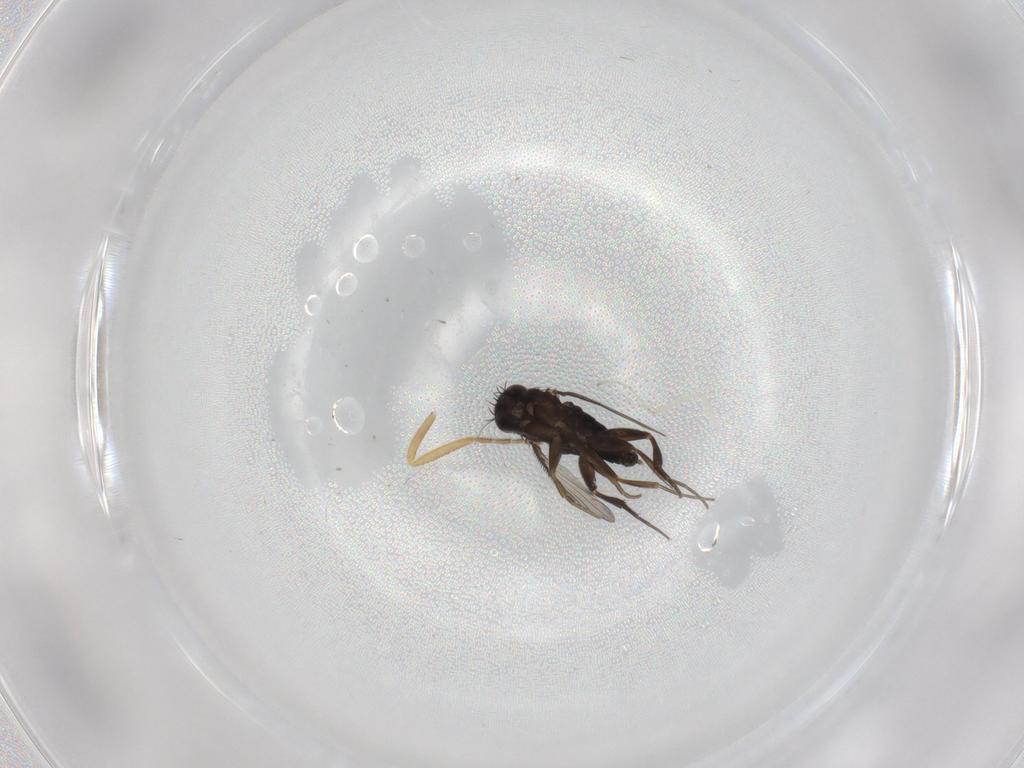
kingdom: Animalia
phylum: Arthropoda
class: Insecta
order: Diptera
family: Ceratopogonidae
